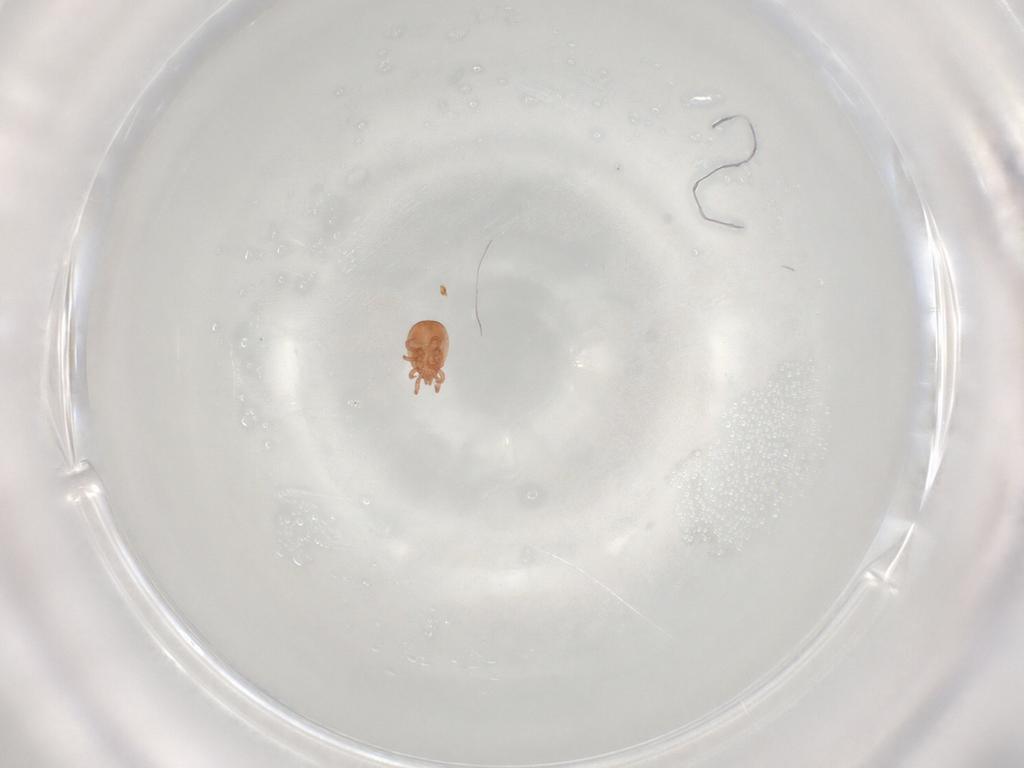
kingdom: Animalia
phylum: Arthropoda
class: Arachnida
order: Mesostigmata
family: Zerconidae
